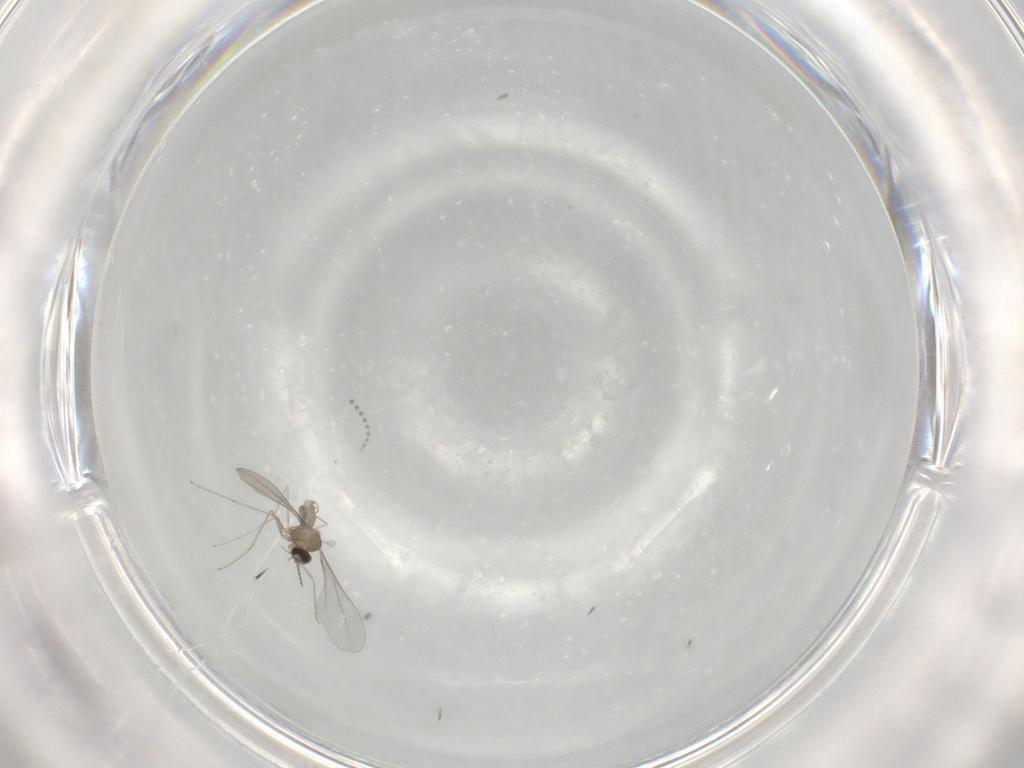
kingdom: Animalia
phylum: Arthropoda
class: Insecta
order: Diptera
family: Cecidomyiidae
